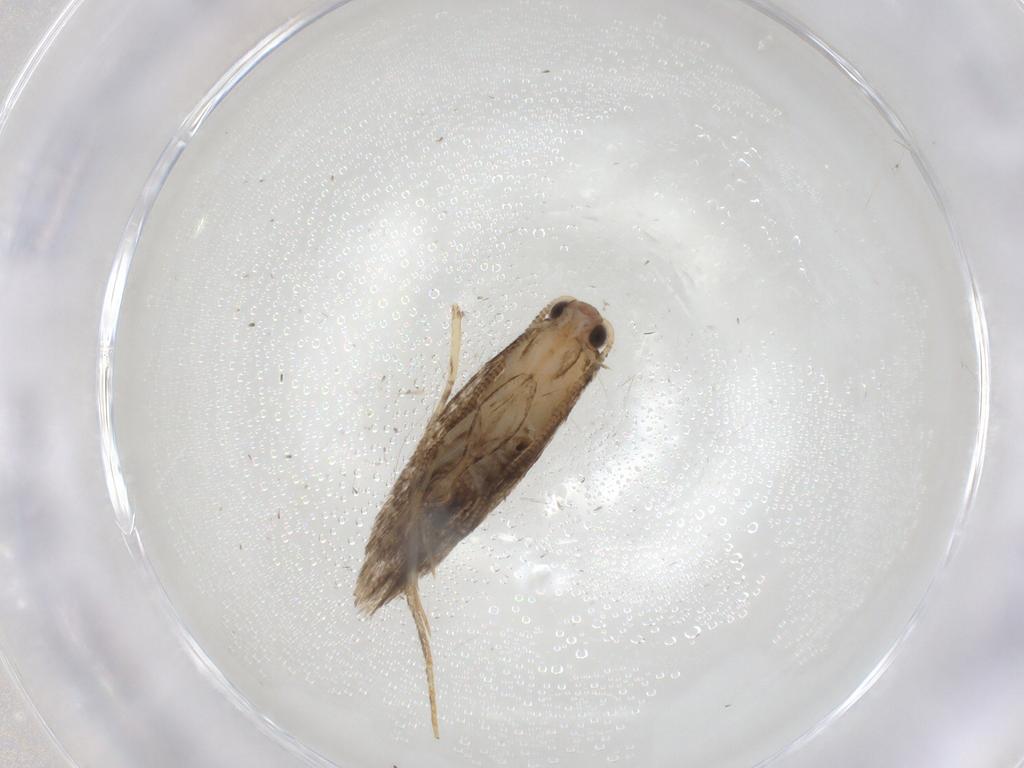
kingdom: Animalia
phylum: Arthropoda
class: Insecta
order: Lepidoptera
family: Tineidae
